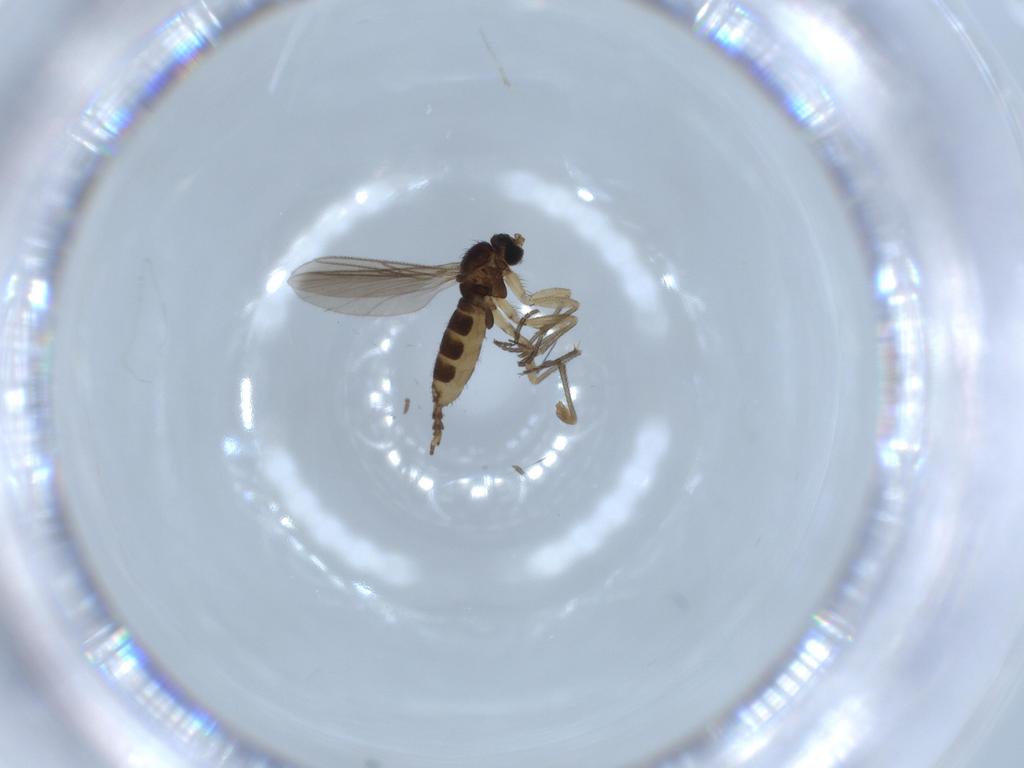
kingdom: Animalia
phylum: Arthropoda
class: Insecta
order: Diptera
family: Sciaridae
